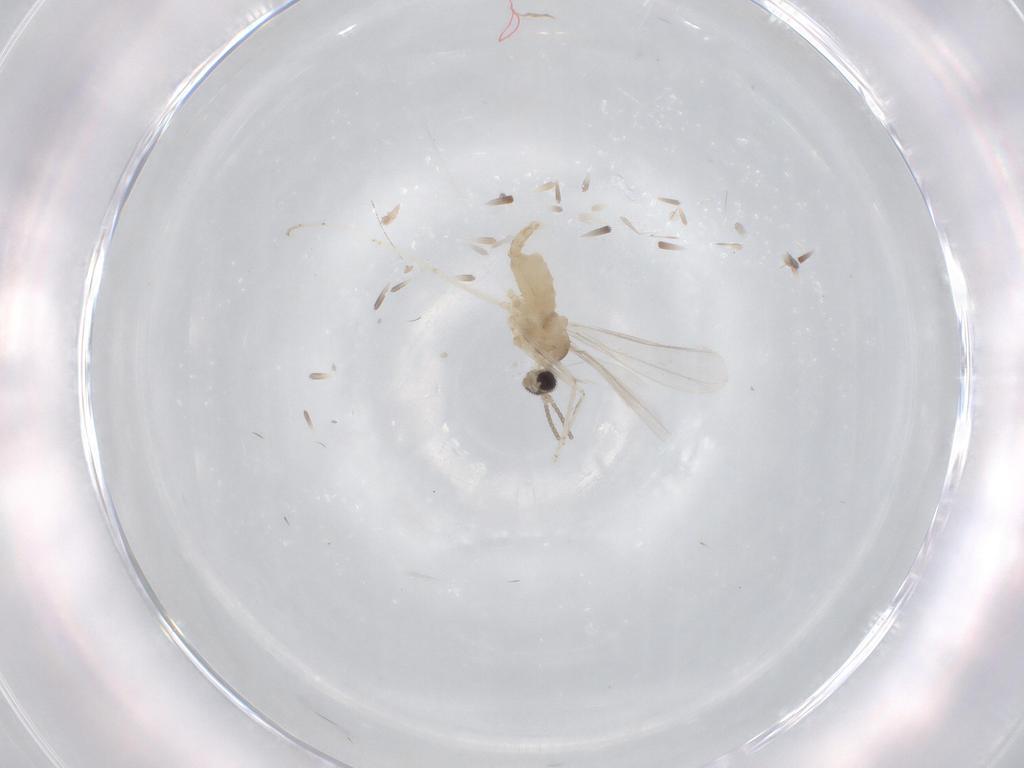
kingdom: Animalia
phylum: Arthropoda
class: Insecta
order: Diptera
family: Cecidomyiidae
